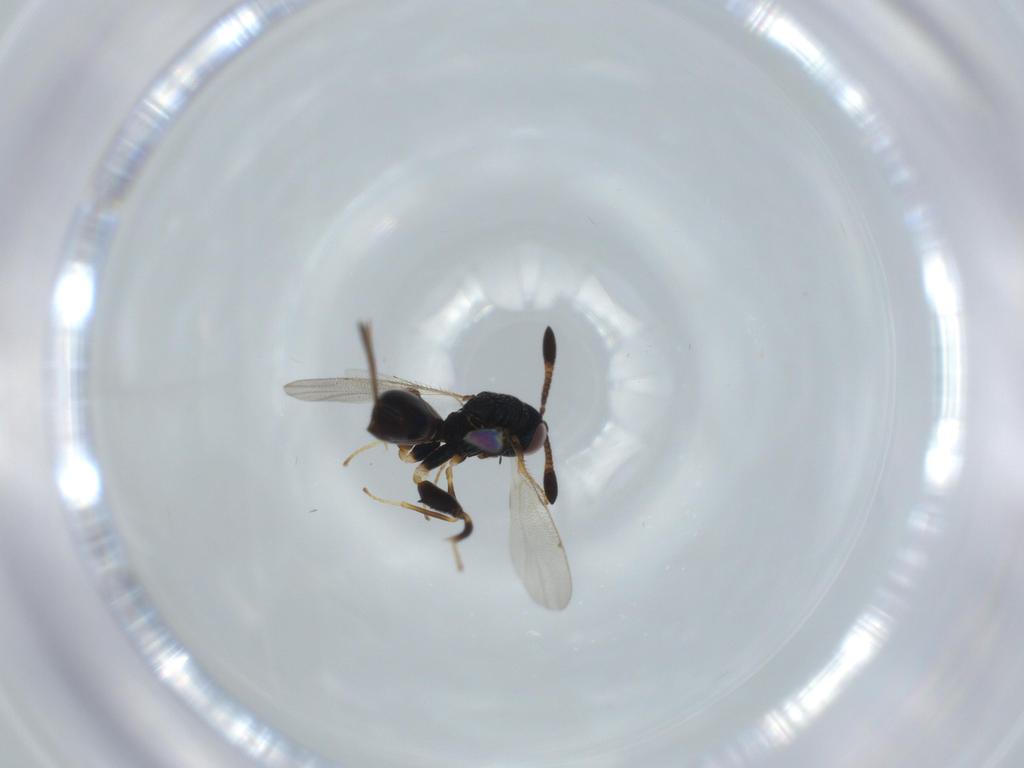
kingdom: Animalia
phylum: Arthropoda
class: Insecta
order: Hymenoptera
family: Torymidae
